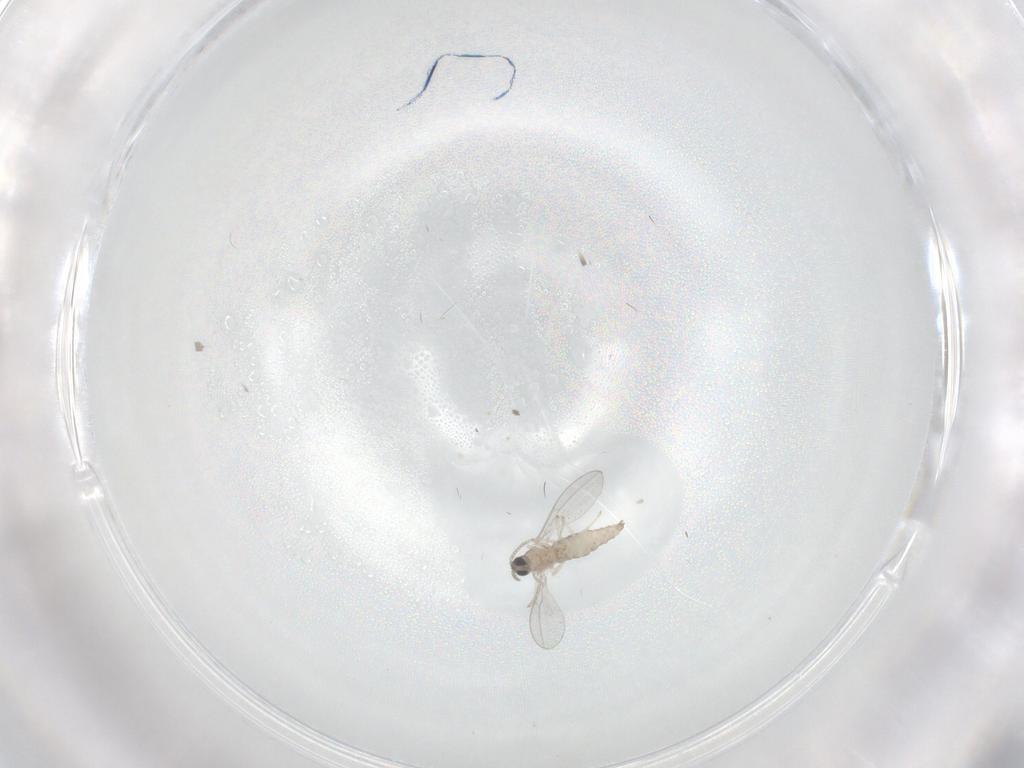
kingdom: Animalia
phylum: Arthropoda
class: Insecta
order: Diptera
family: Cecidomyiidae
